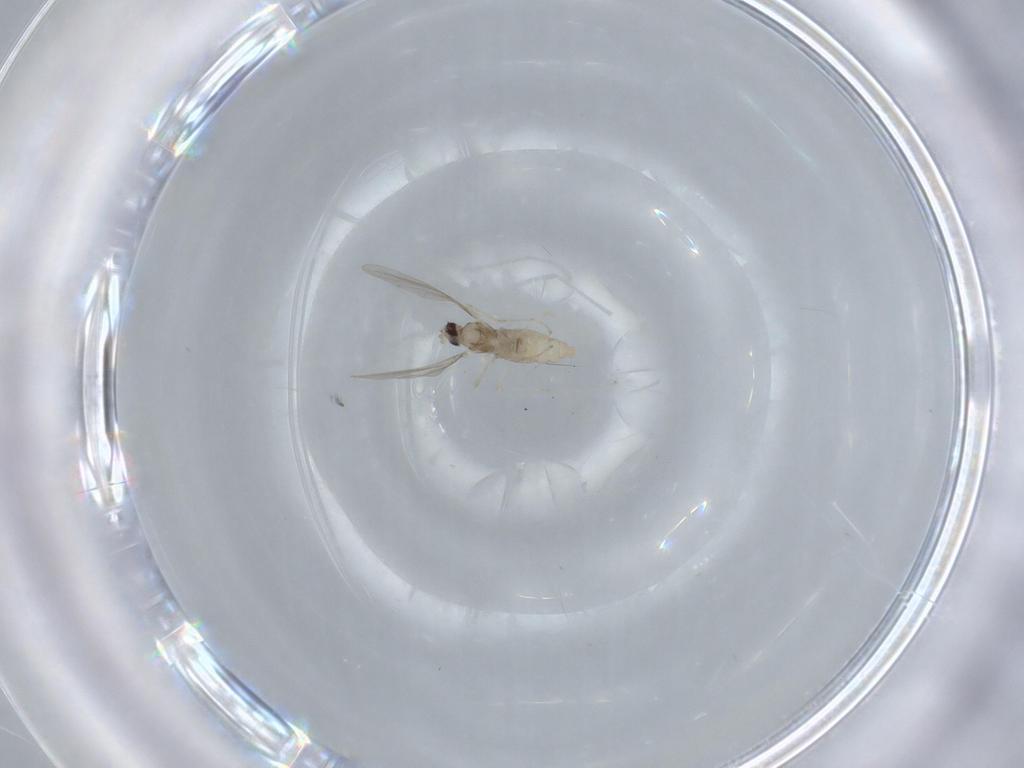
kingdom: Animalia
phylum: Arthropoda
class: Insecta
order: Diptera
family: Cecidomyiidae
